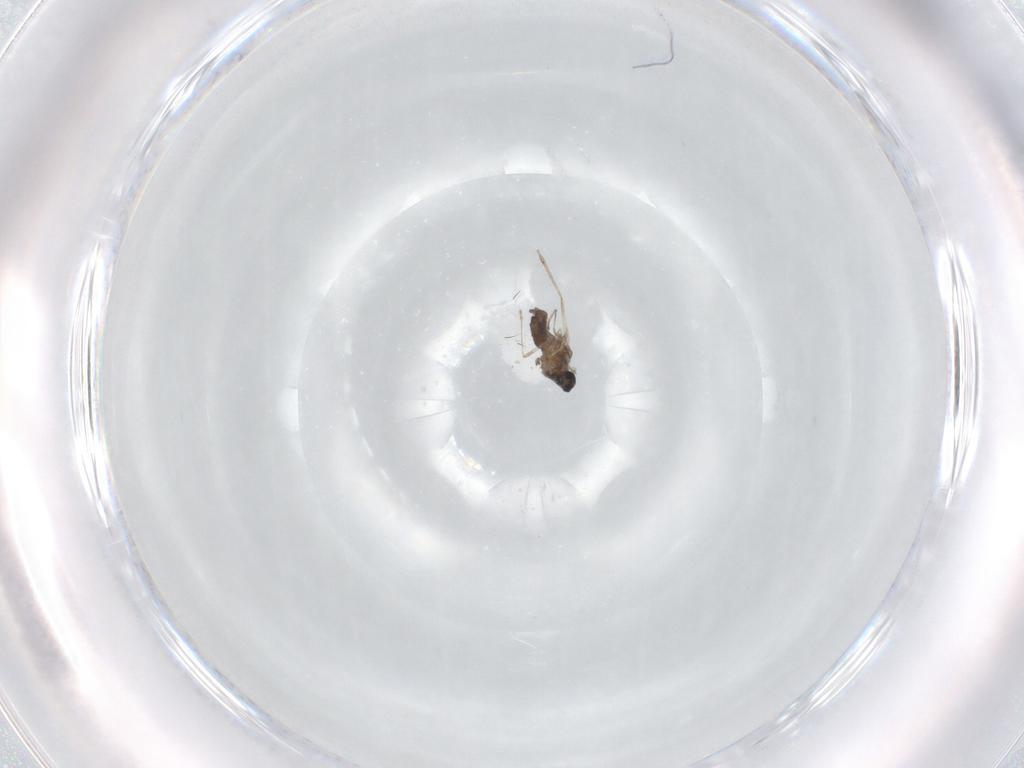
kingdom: Animalia
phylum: Arthropoda
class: Insecta
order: Diptera
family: Cecidomyiidae
